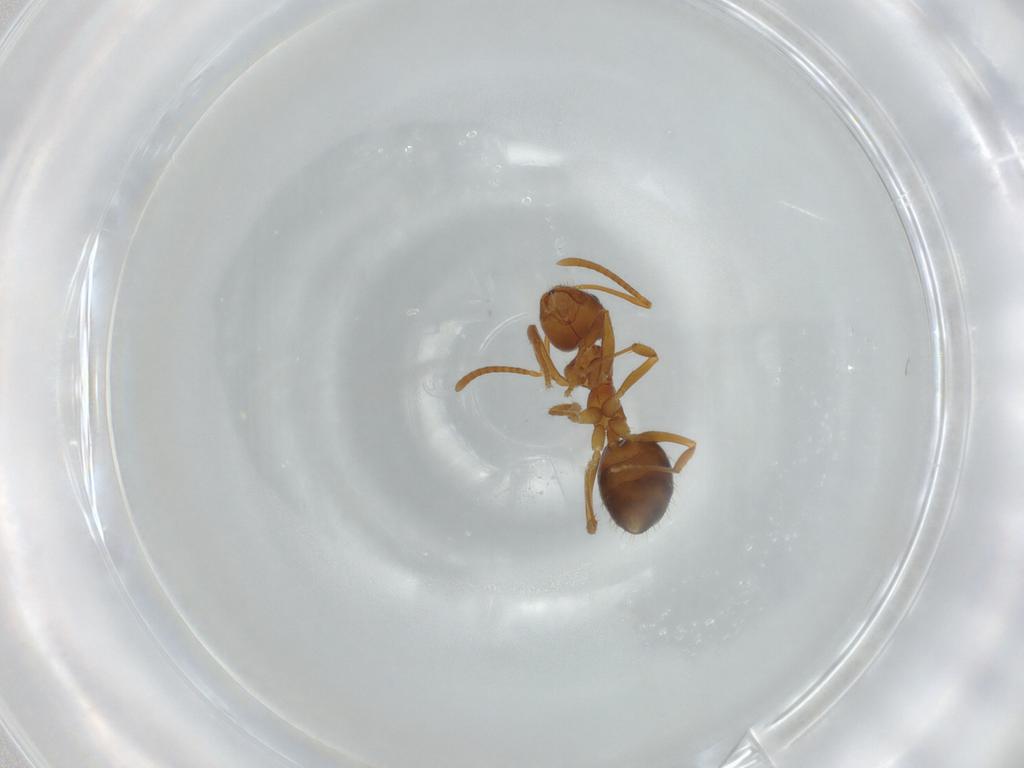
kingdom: Animalia
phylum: Arthropoda
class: Insecta
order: Hymenoptera
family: Formicidae
